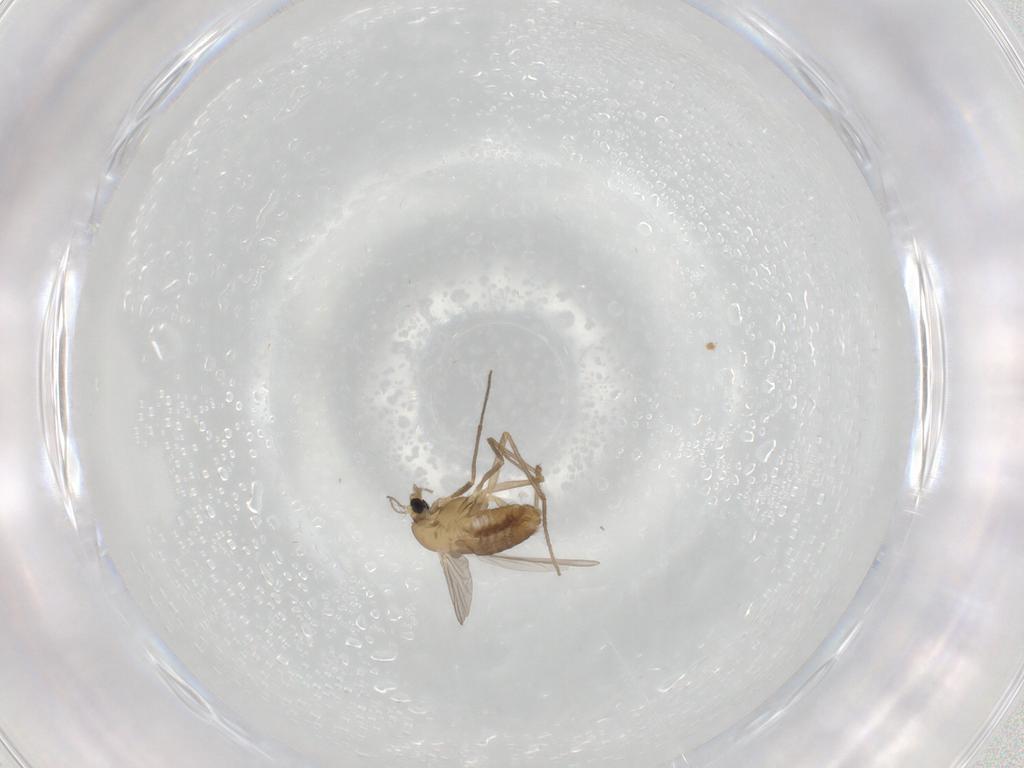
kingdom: Animalia
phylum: Arthropoda
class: Insecta
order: Diptera
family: Chironomidae
